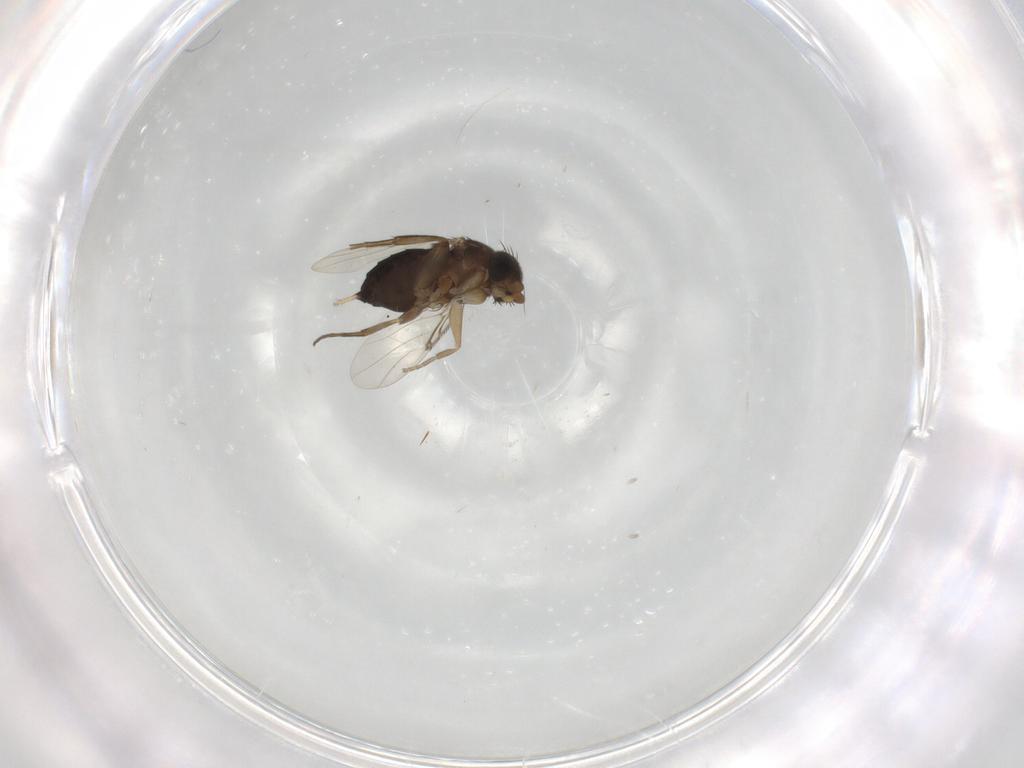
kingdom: Animalia
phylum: Arthropoda
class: Insecta
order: Diptera
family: Phoridae
